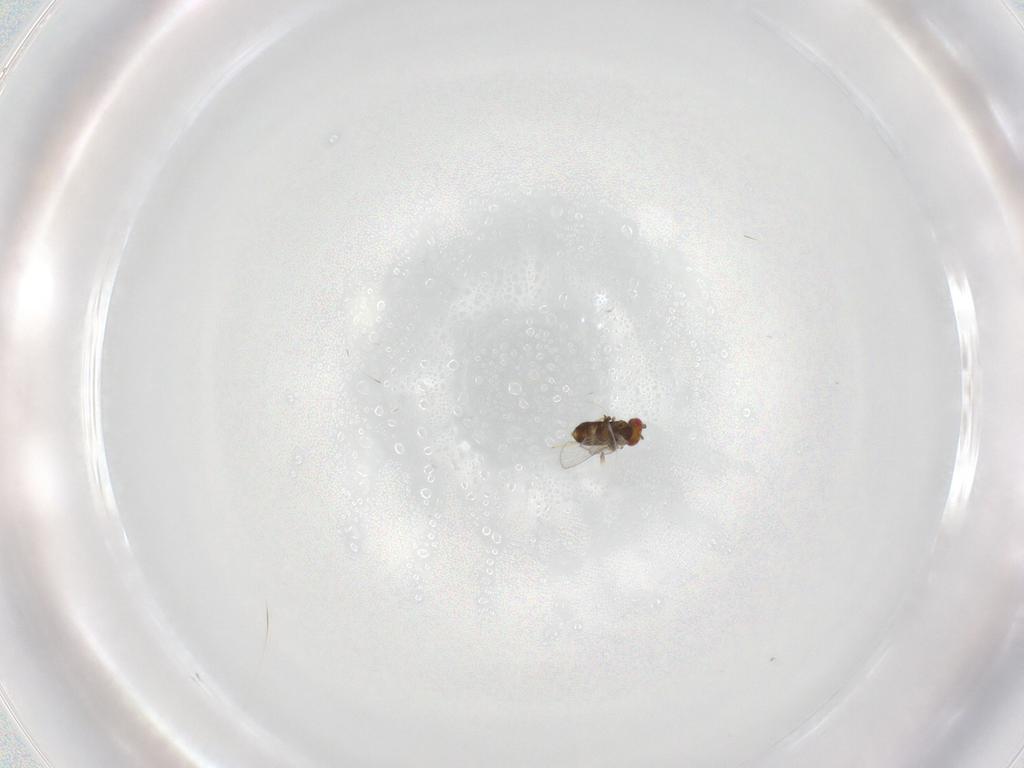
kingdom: Animalia
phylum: Arthropoda
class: Insecta
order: Hymenoptera
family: Trichogrammatidae
